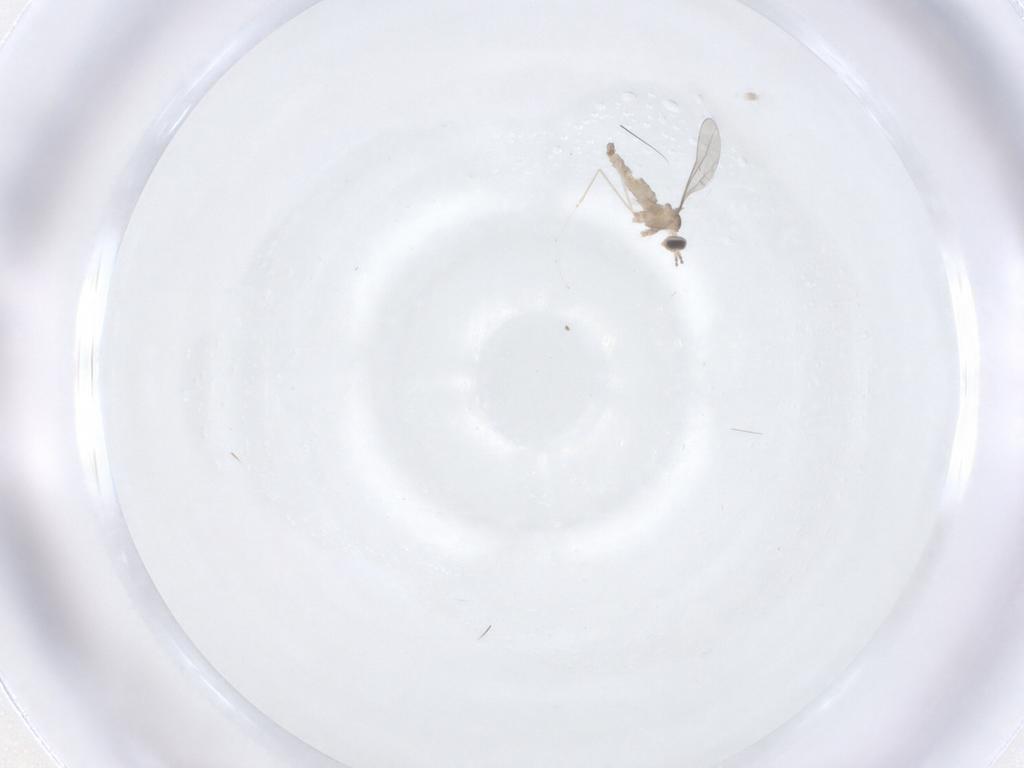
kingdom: Animalia
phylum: Arthropoda
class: Insecta
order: Diptera
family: Cecidomyiidae
